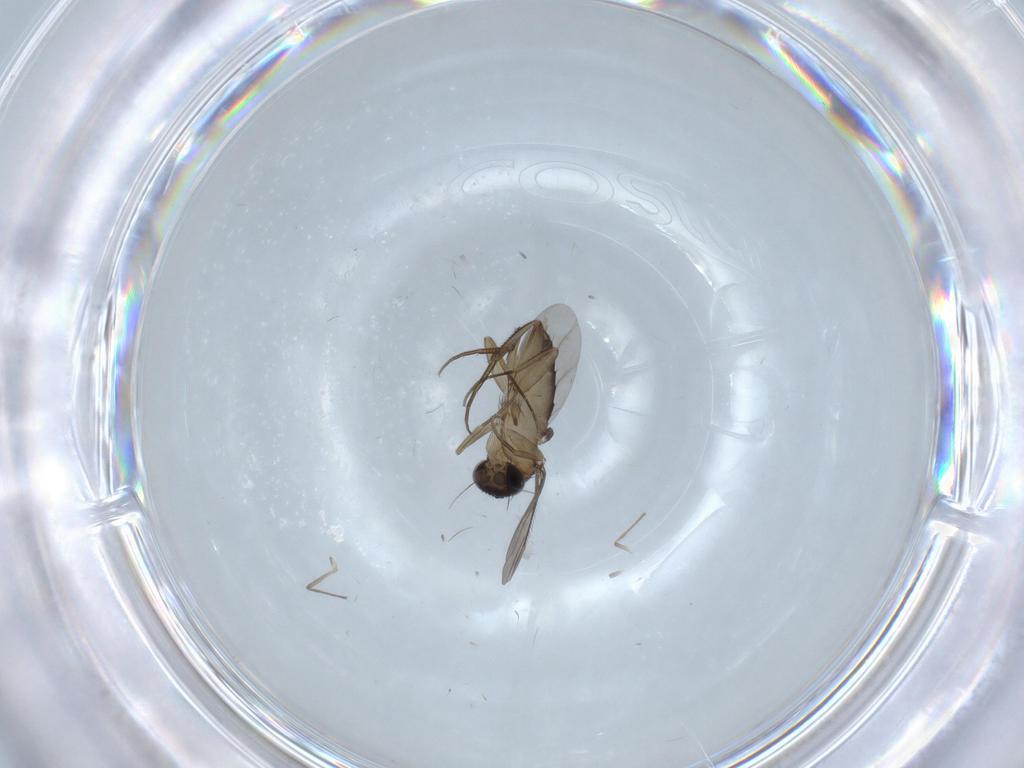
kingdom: Animalia
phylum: Arthropoda
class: Insecta
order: Diptera
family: Phoridae
